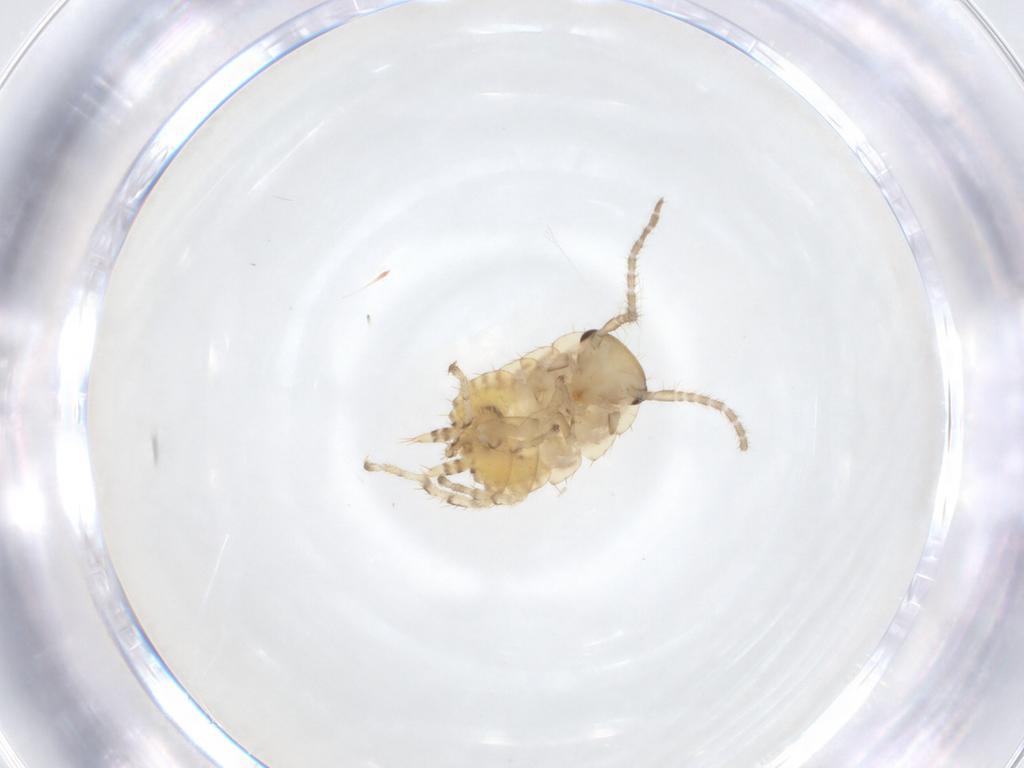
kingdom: Animalia
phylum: Arthropoda
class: Insecta
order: Blattodea
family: Ectobiidae
